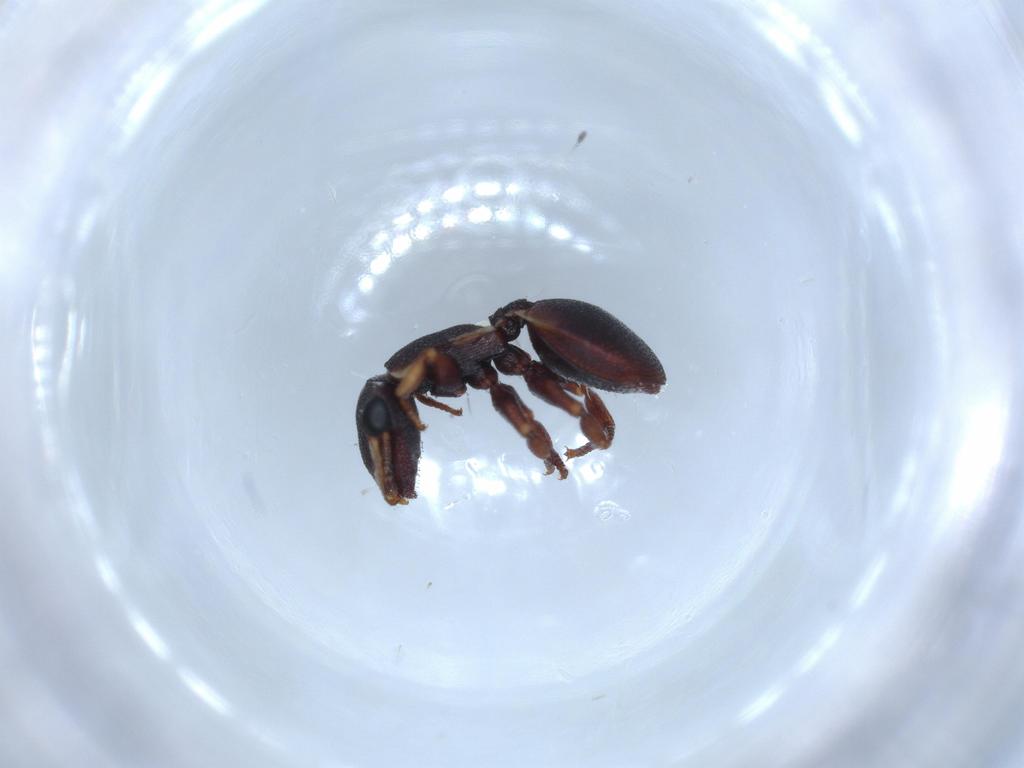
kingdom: Animalia
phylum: Arthropoda
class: Insecta
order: Hymenoptera
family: Formicidae
